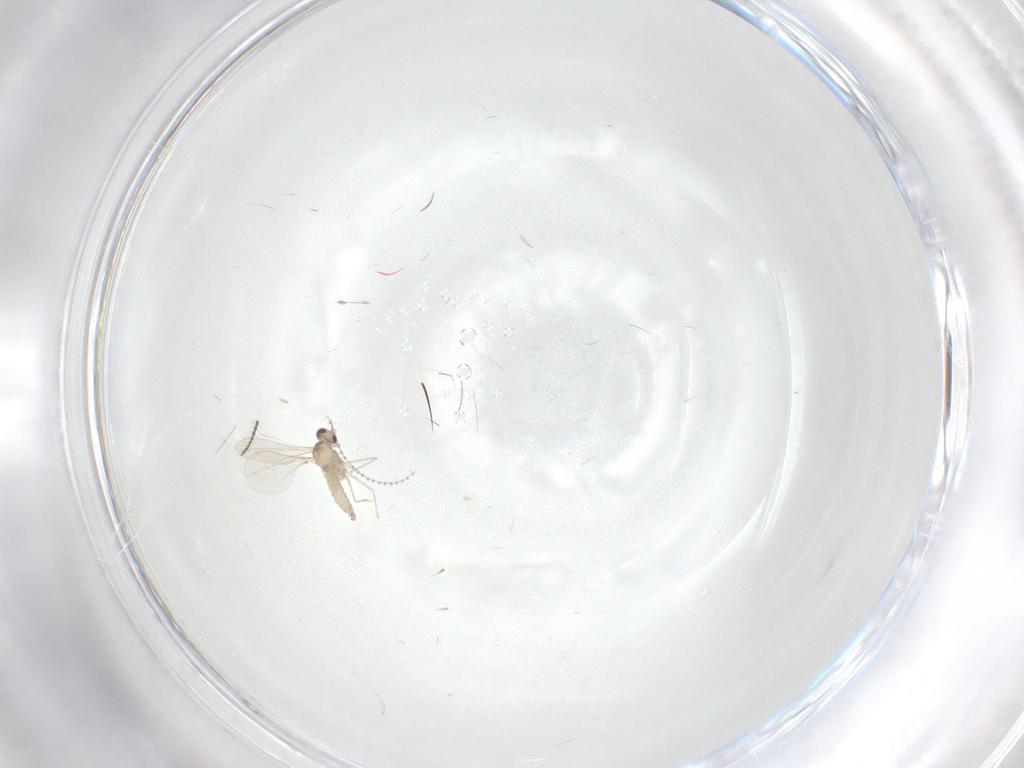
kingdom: Animalia
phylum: Arthropoda
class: Insecta
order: Diptera
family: Cecidomyiidae
